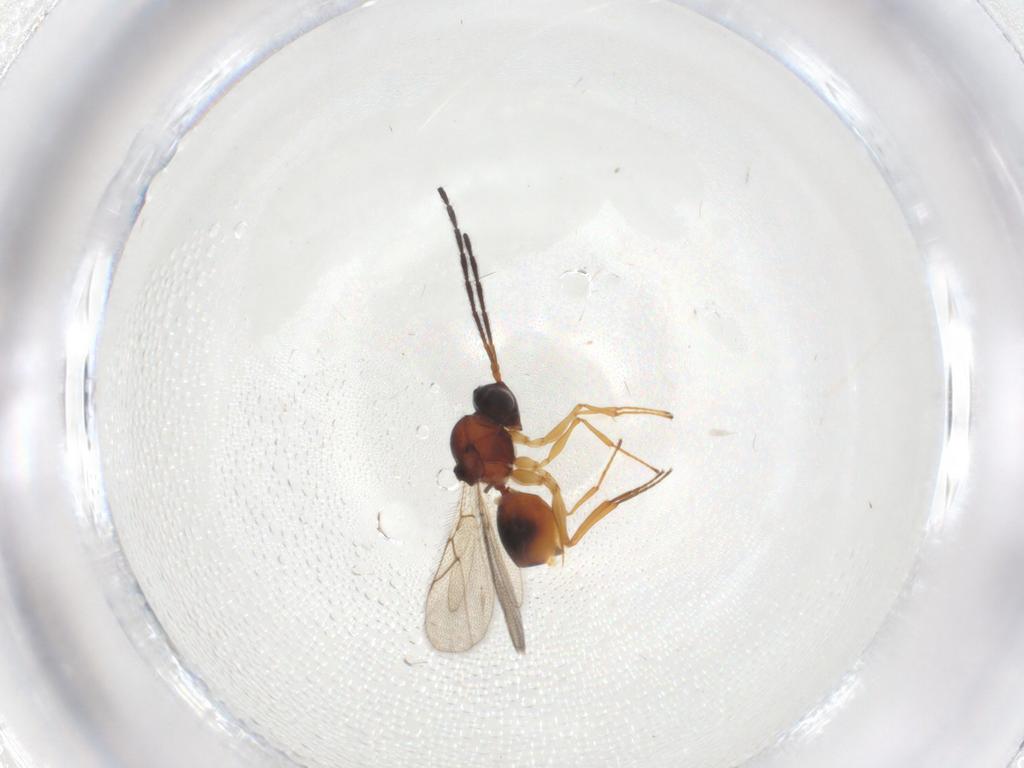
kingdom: Animalia
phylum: Arthropoda
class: Insecta
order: Hymenoptera
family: Figitidae
